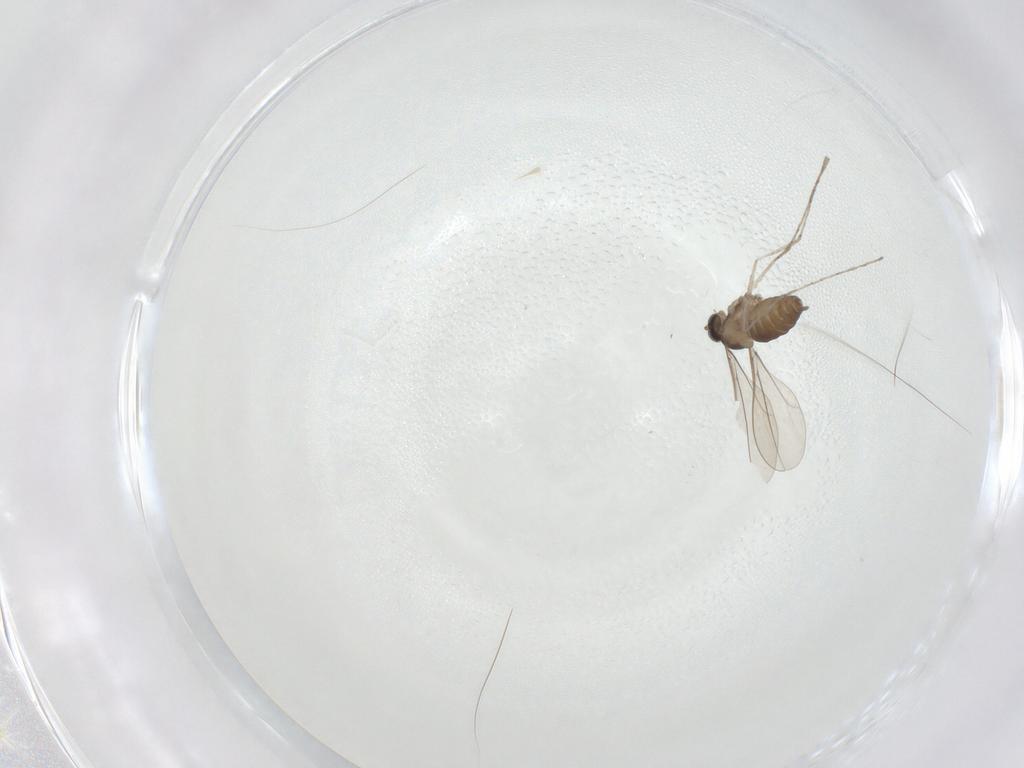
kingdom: Animalia
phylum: Arthropoda
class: Insecta
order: Diptera
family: Cecidomyiidae
